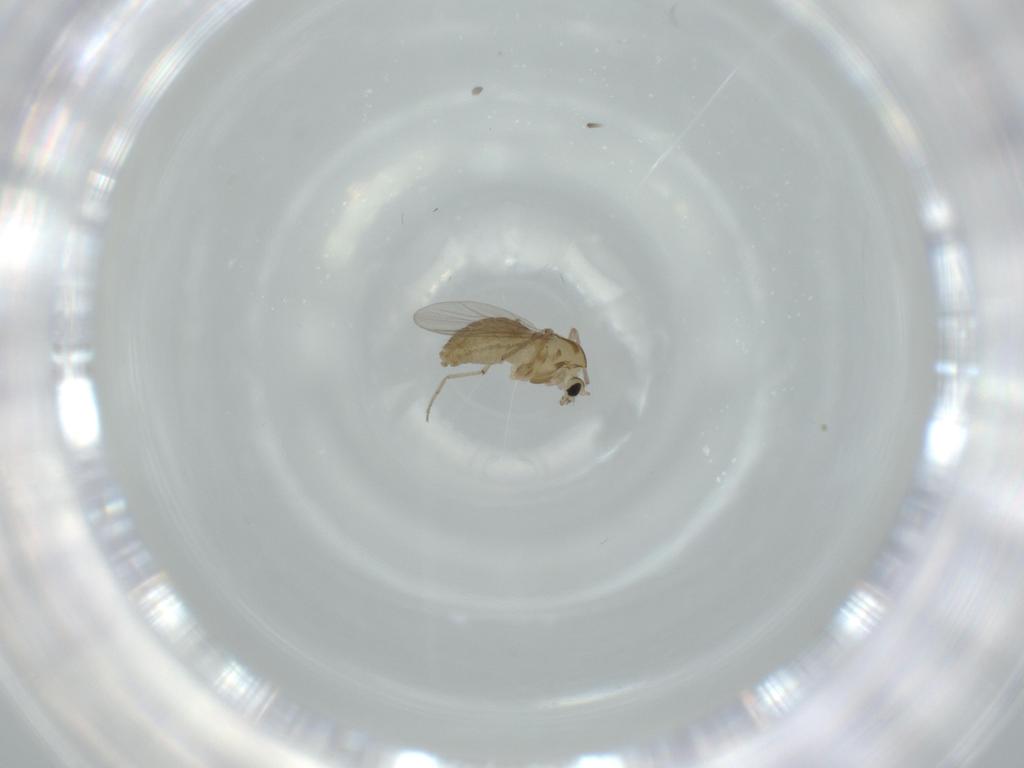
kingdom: Animalia
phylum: Arthropoda
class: Insecta
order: Diptera
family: Chironomidae
